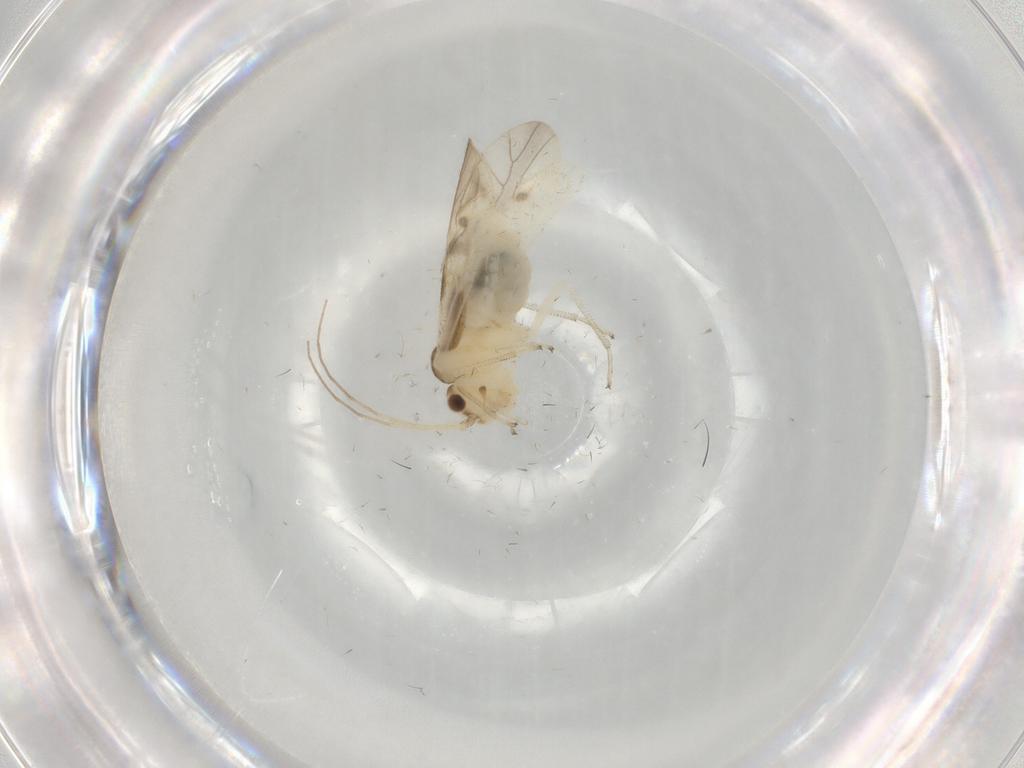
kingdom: Animalia
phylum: Arthropoda
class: Insecta
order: Psocodea
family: Caeciliusidae
